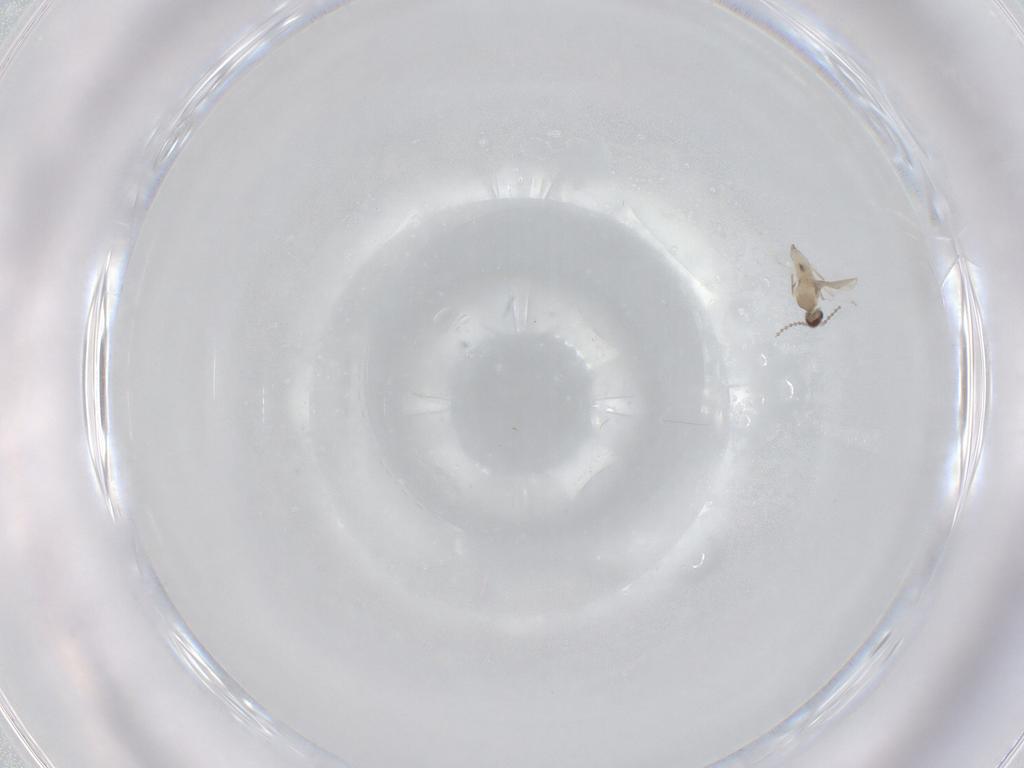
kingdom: Animalia
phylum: Arthropoda
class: Insecta
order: Diptera
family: Cecidomyiidae
